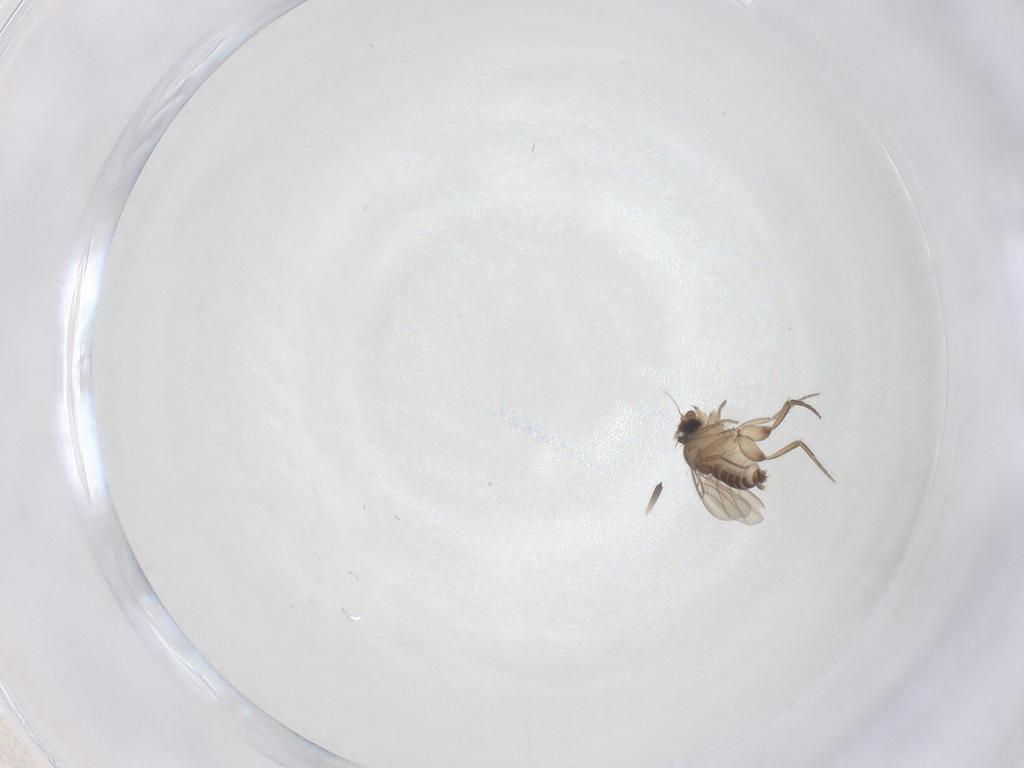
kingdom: Animalia
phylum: Arthropoda
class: Insecta
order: Diptera
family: Phoridae
